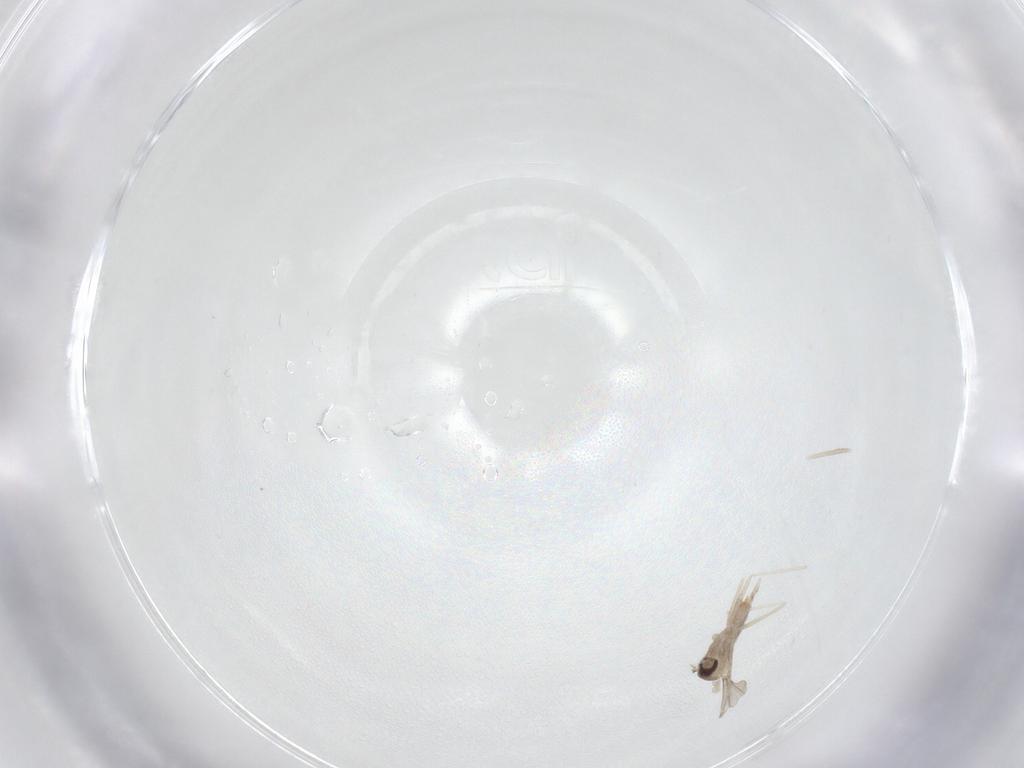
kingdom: Animalia
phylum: Arthropoda
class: Insecta
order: Diptera
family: Cecidomyiidae
